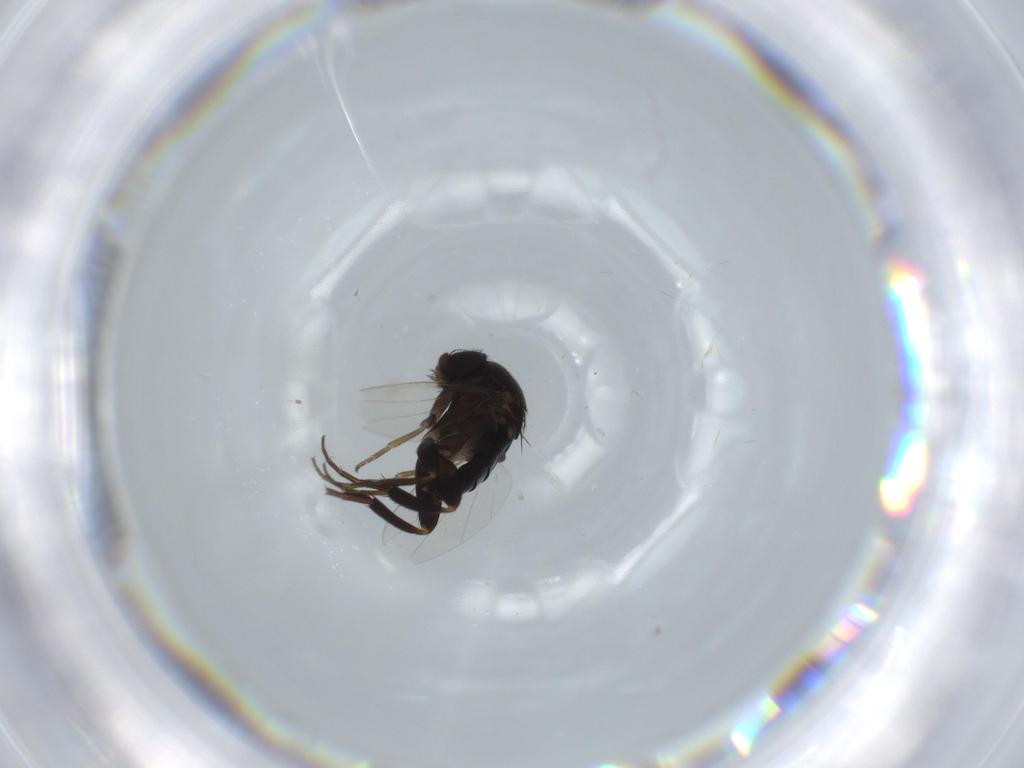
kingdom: Animalia
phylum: Arthropoda
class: Insecta
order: Diptera
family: Phoridae
